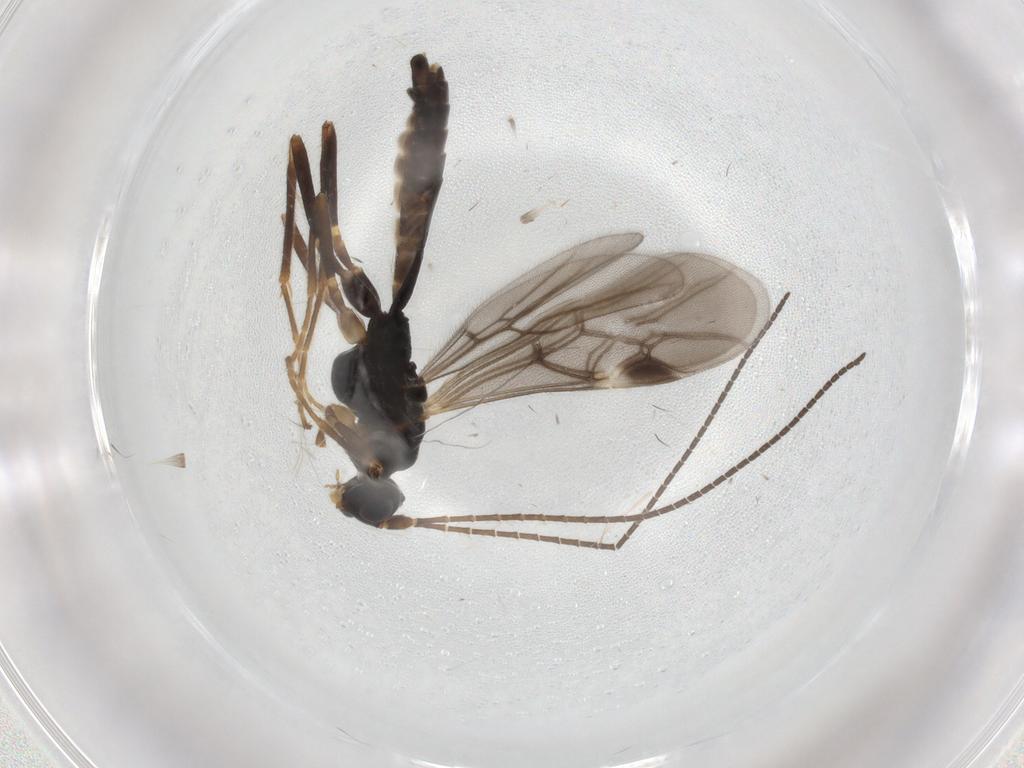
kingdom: Animalia
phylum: Arthropoda
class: Insecta
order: Hymenoptera
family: Braconidae
